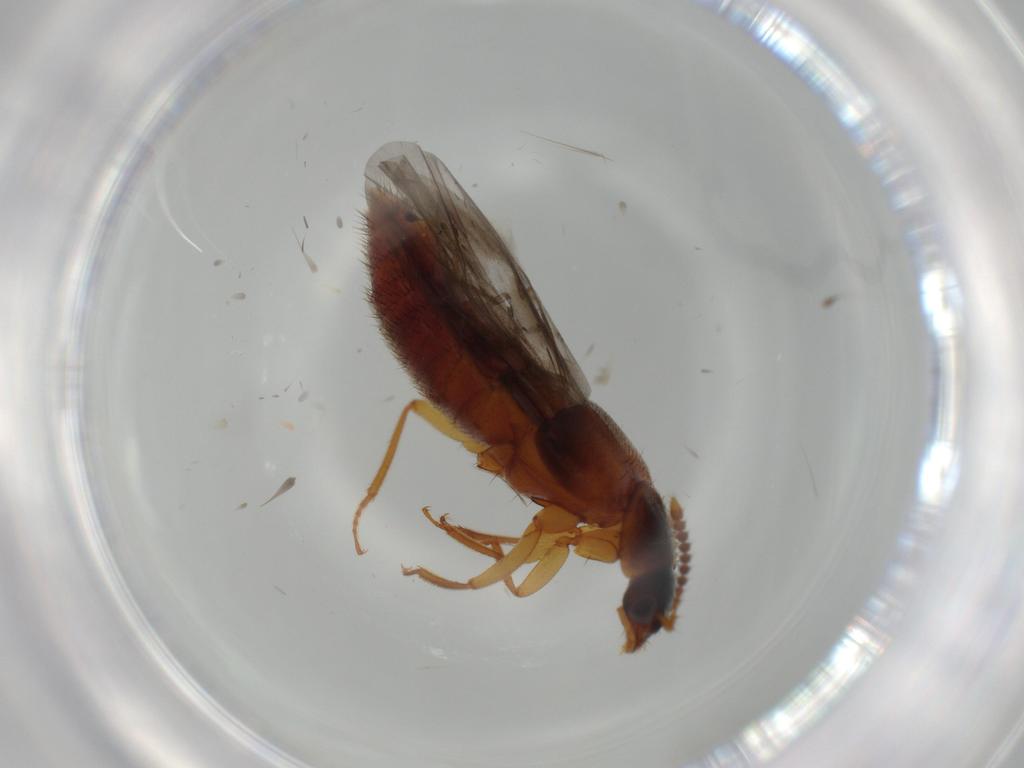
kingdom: Animalia
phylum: Arthropoda
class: Insecta
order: Coleoptera
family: Staphylinidae
